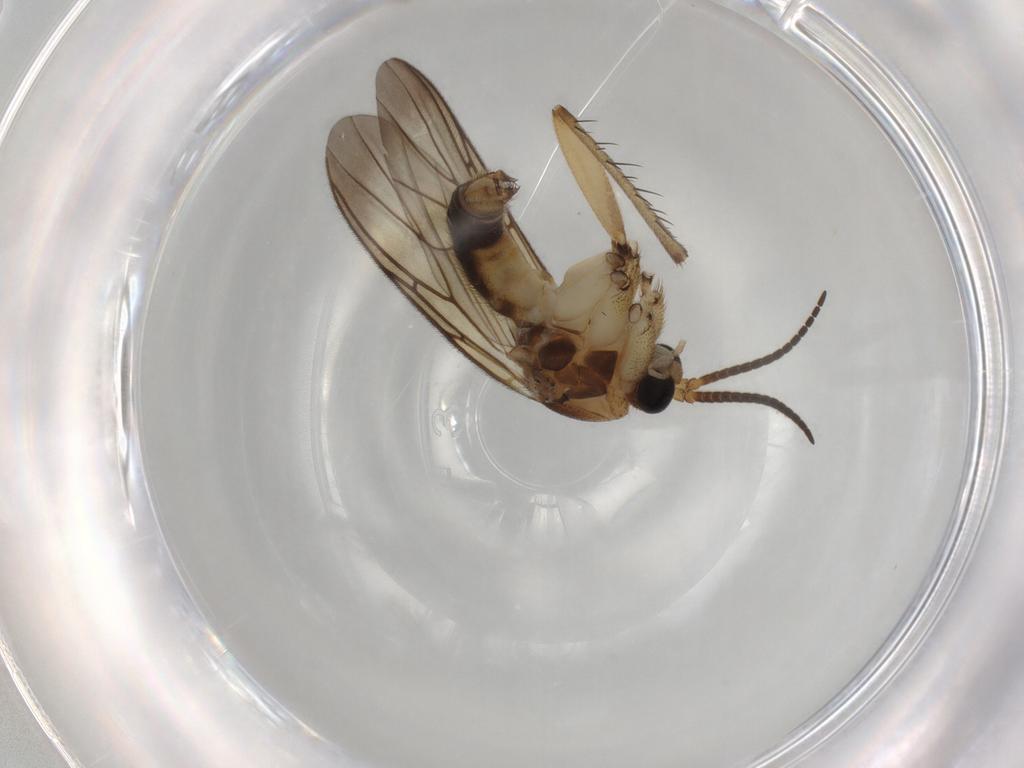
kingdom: Animalia
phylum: Arthropoda
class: Insecta
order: Diptera
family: Mycetophilidae
